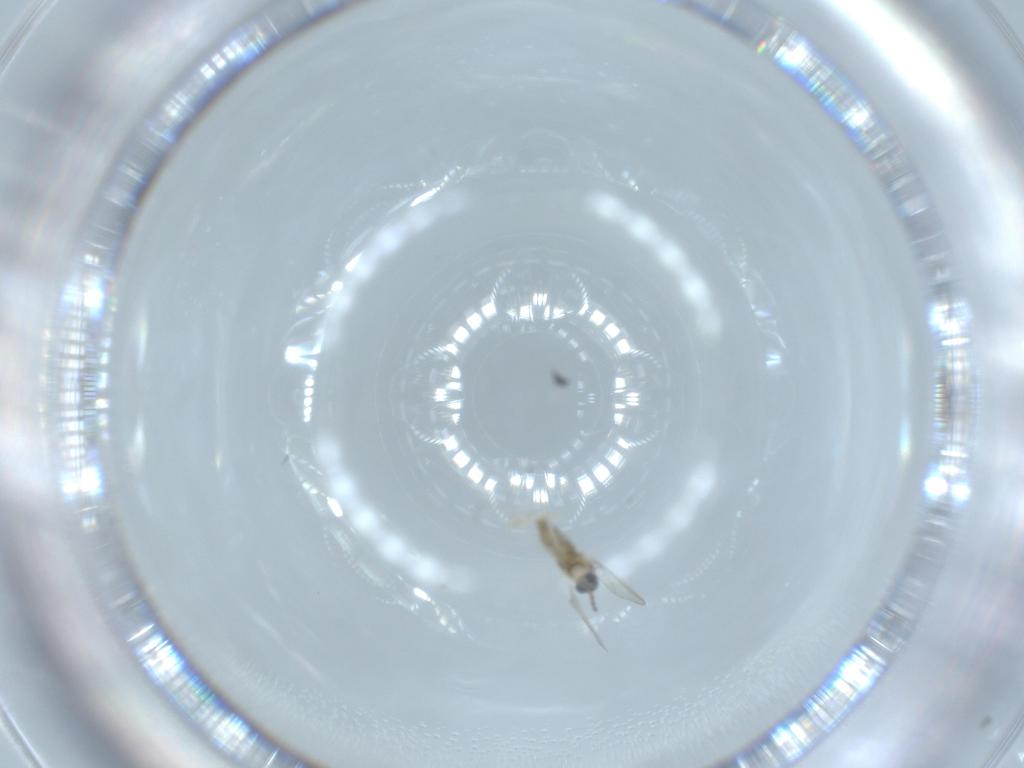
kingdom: Animalia
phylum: Arthropoda
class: Insecta
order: Diptera
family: Cecidomyiidae
